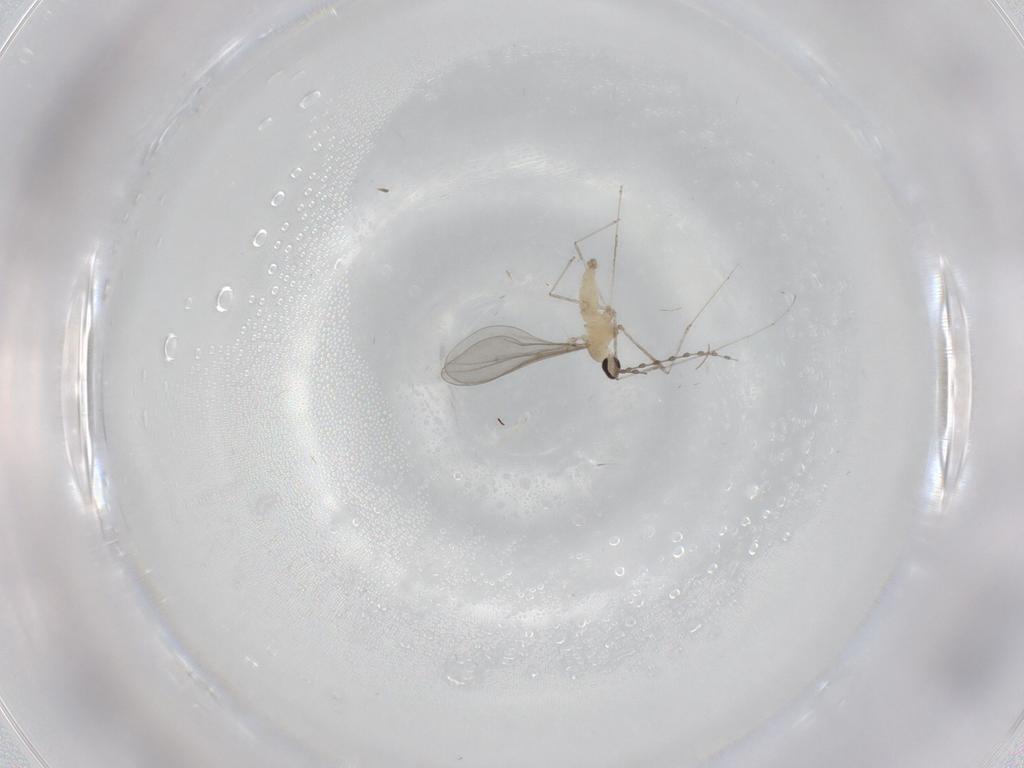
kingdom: Animalia
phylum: Arthropoda
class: Insecta
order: Diptera
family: Cecidomyiidae
